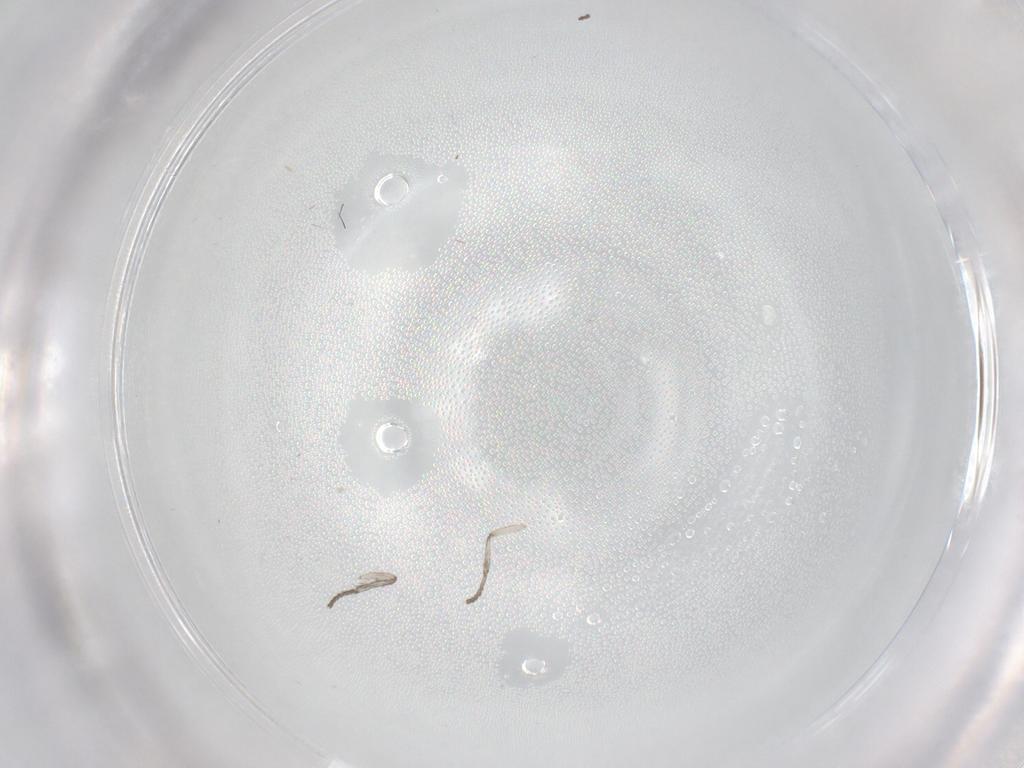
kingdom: Animalia
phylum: Arthropoda
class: Insecta
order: Diptera
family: Psychodidae
